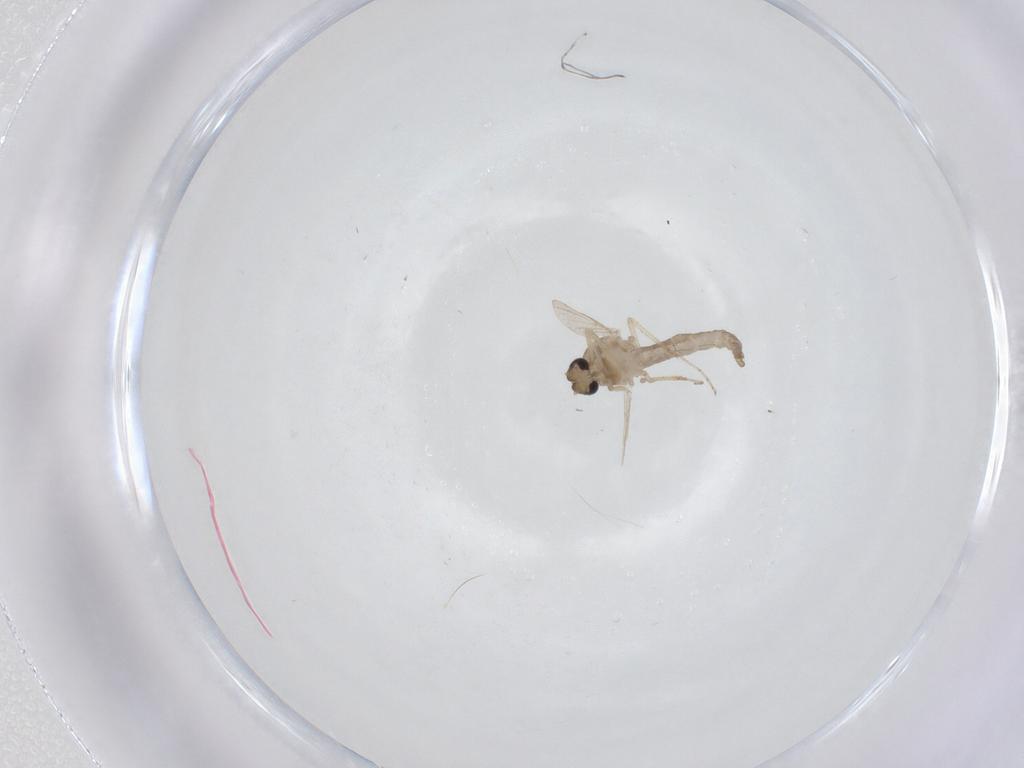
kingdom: Animalia
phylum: Arthropoda
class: Insecta
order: Diptera
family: Ceratopogonidae
